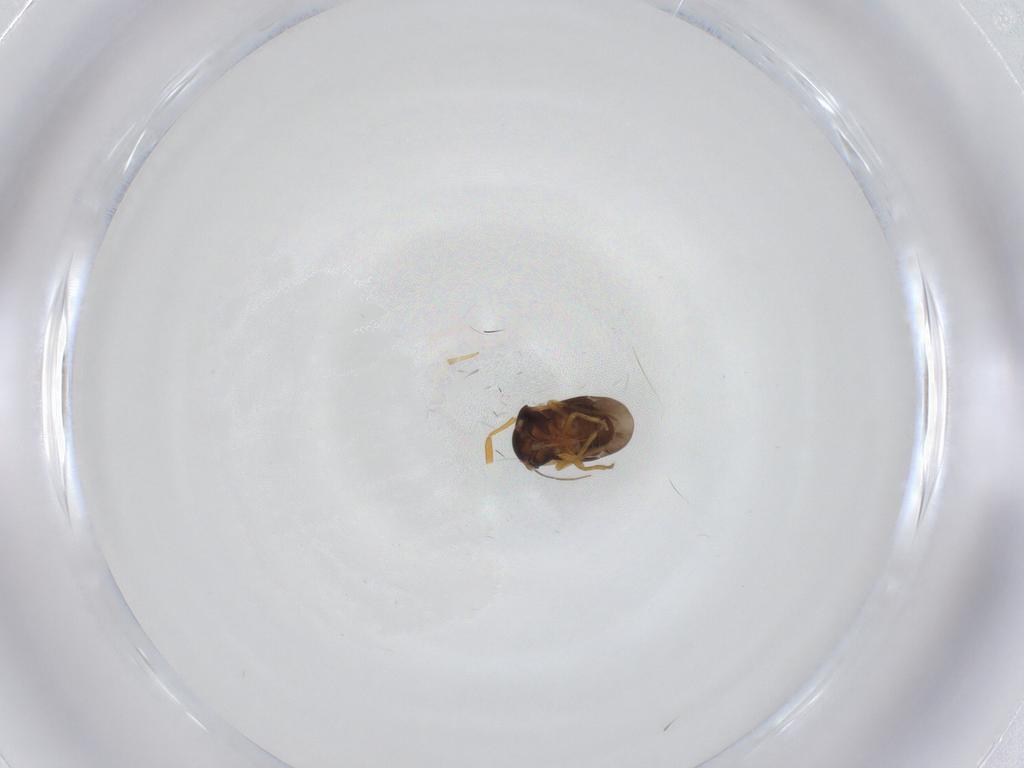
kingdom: Animalia
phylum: Arthropoda
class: Insecta
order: Hemiptera
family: Schizopteridae
